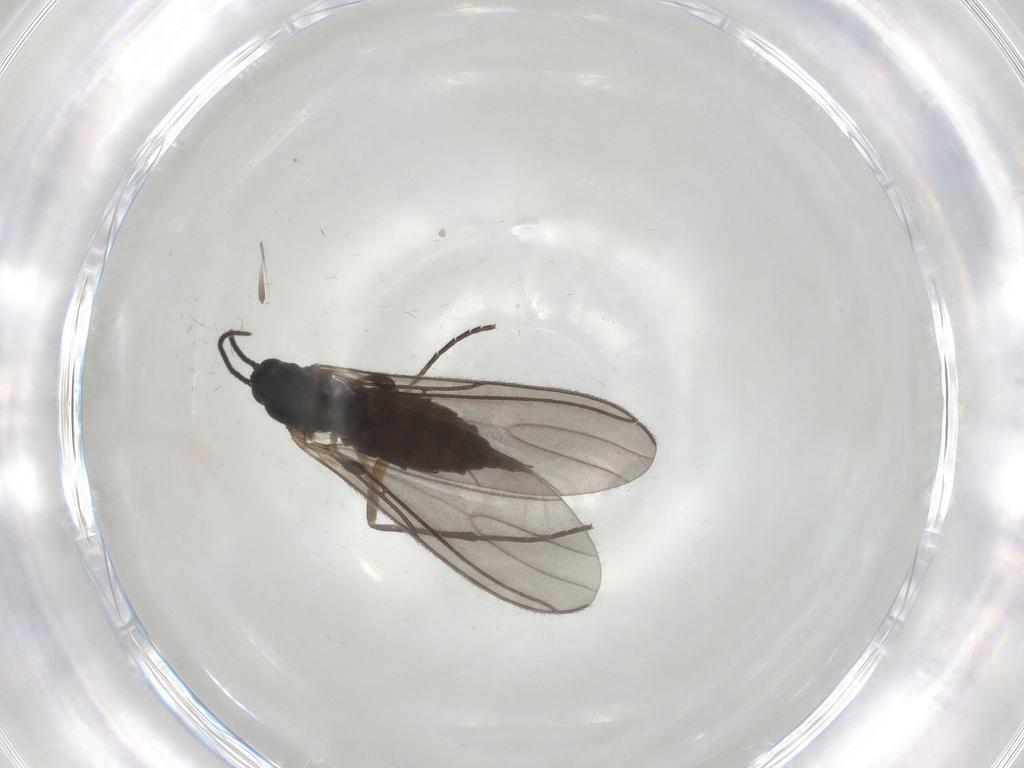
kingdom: Animalia
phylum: Arthropoda
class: Insecta
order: Diptera
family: Sciaridae
